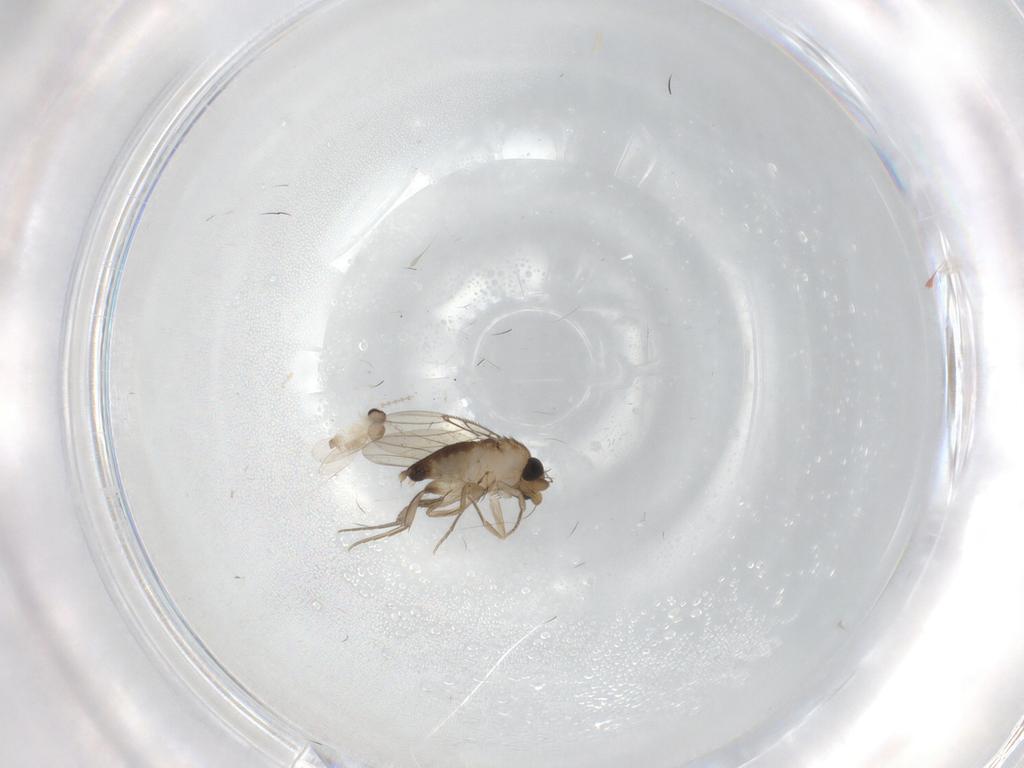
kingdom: Animalia
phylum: Arthropoda
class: Insecta
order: Diptera
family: Phoridae
